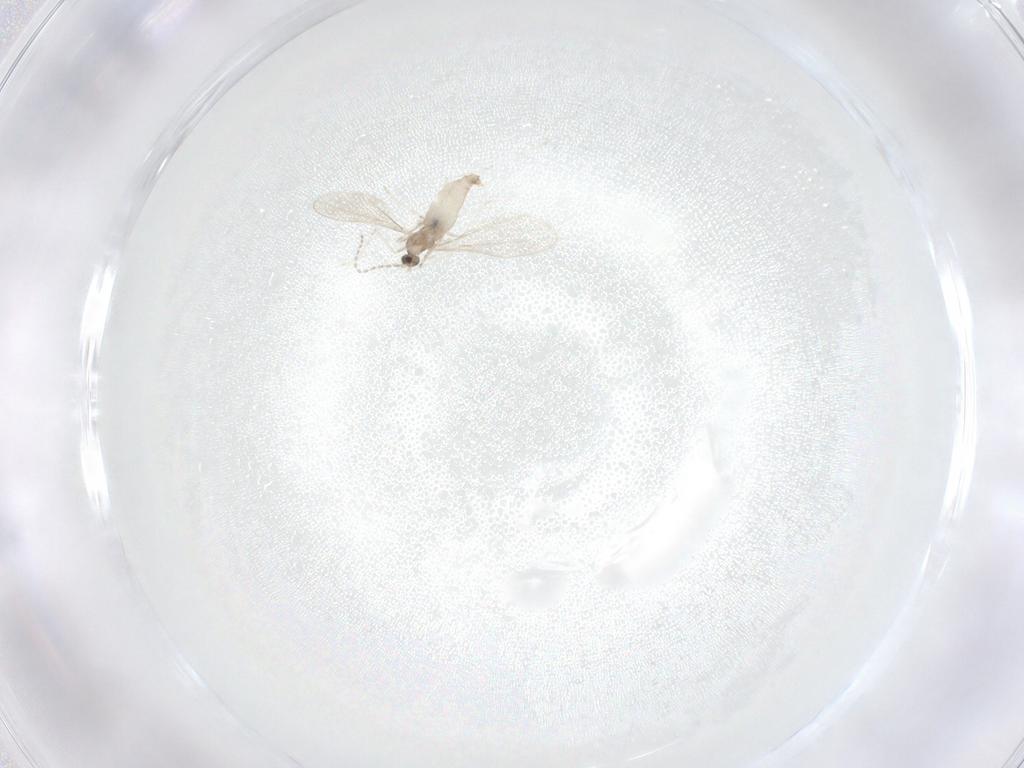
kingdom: Animalia
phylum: Arthropoda
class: Insecta
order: Diptera
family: Cecidomyiidae
